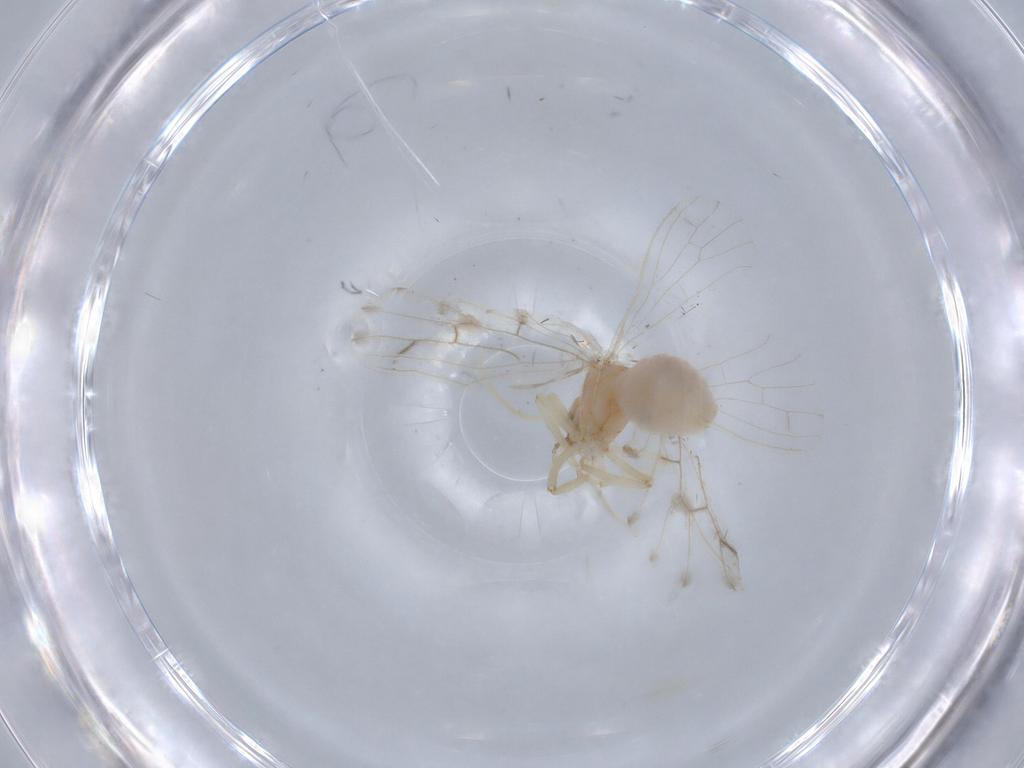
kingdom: Animalia
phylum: Arthropoda
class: Insecta
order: Neuroptera
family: Coniopterygidae
